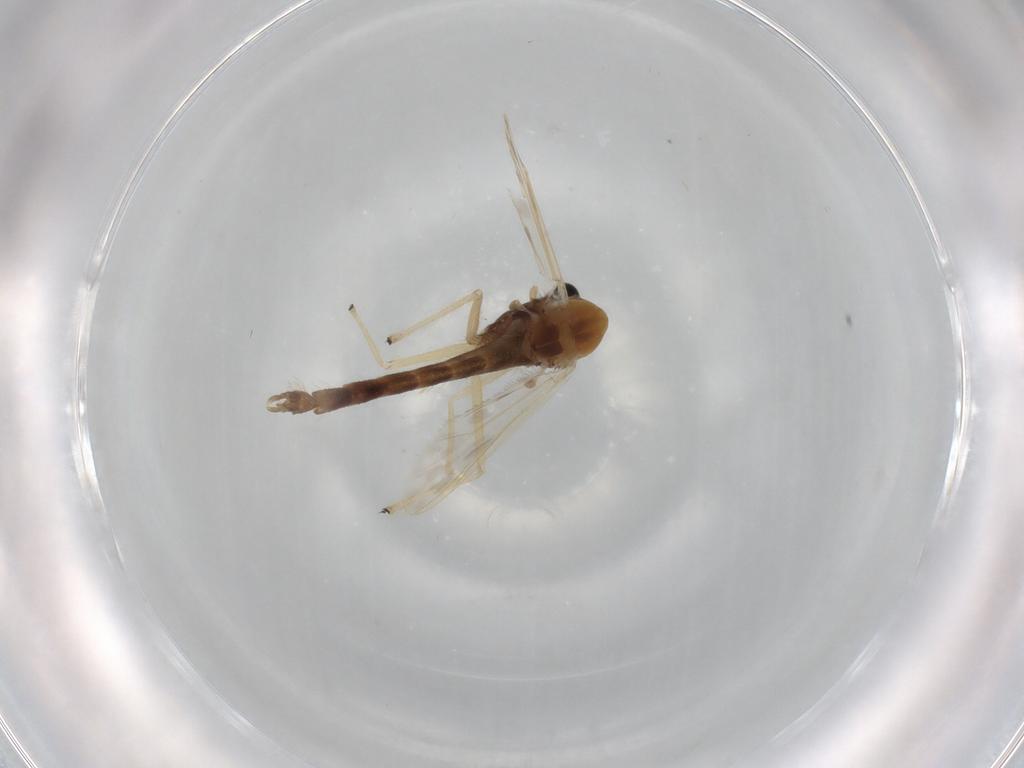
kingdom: Animalia
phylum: Arthropoda
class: Insecta
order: Diptera
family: Chironomidae
